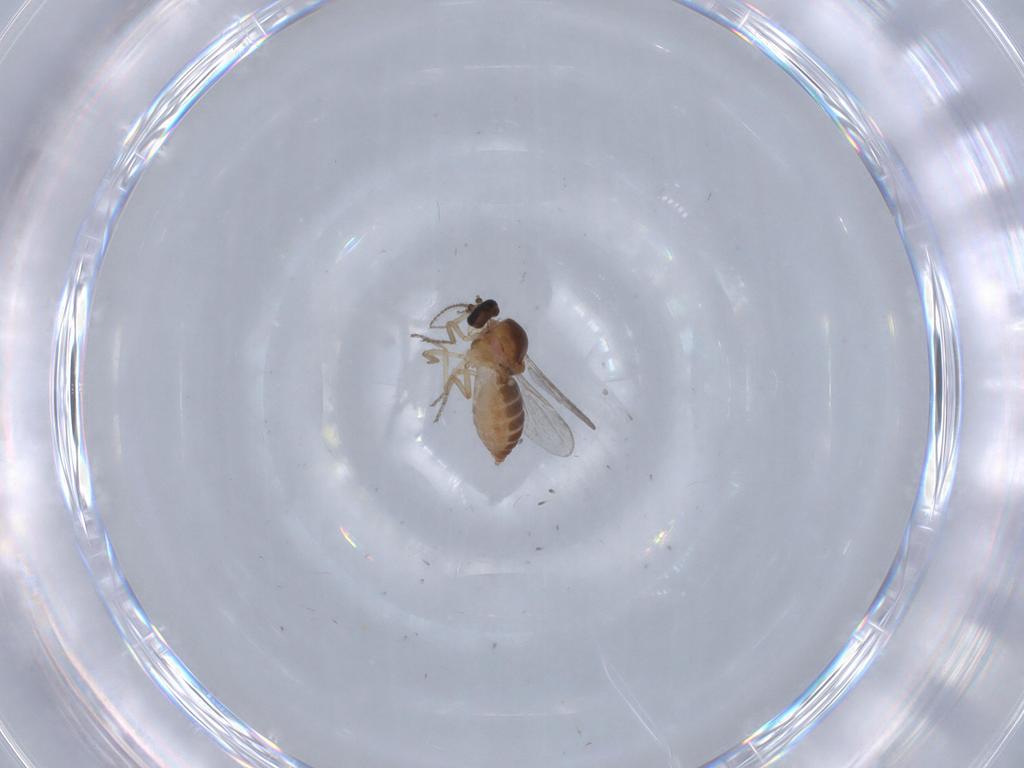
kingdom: Animalia
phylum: Arthropoda
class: Insecta
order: Diptera
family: Ceratopogonidae
